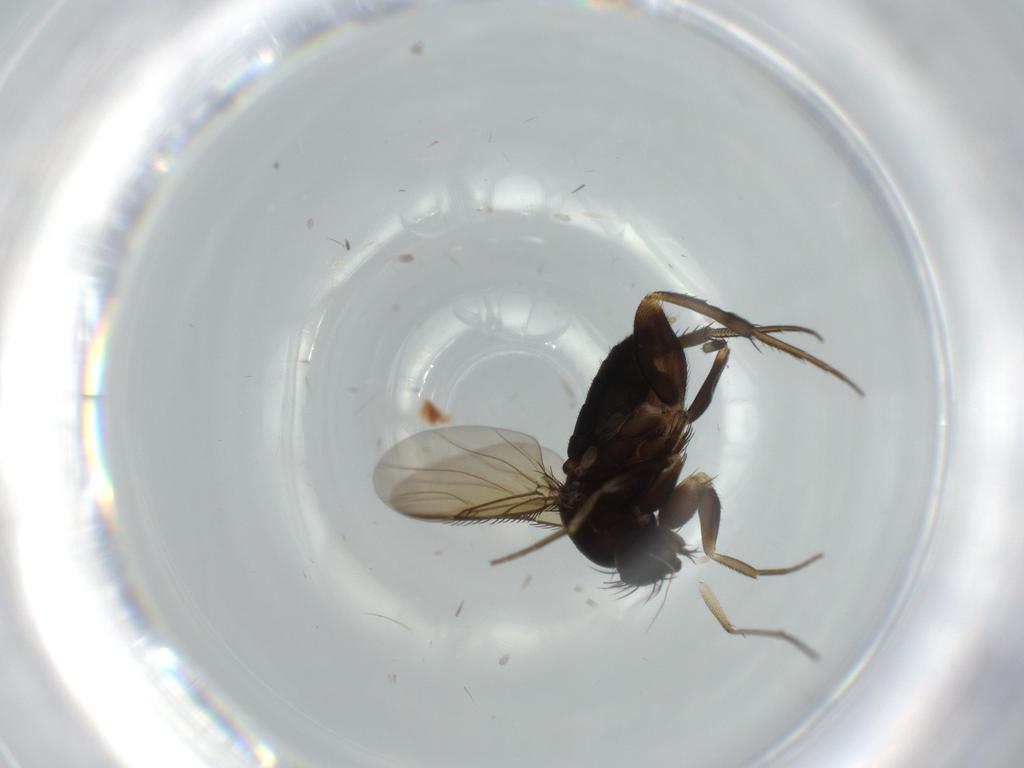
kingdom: Animalia
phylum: Arthropoda
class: Insecta
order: Diptera
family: Phoridae
